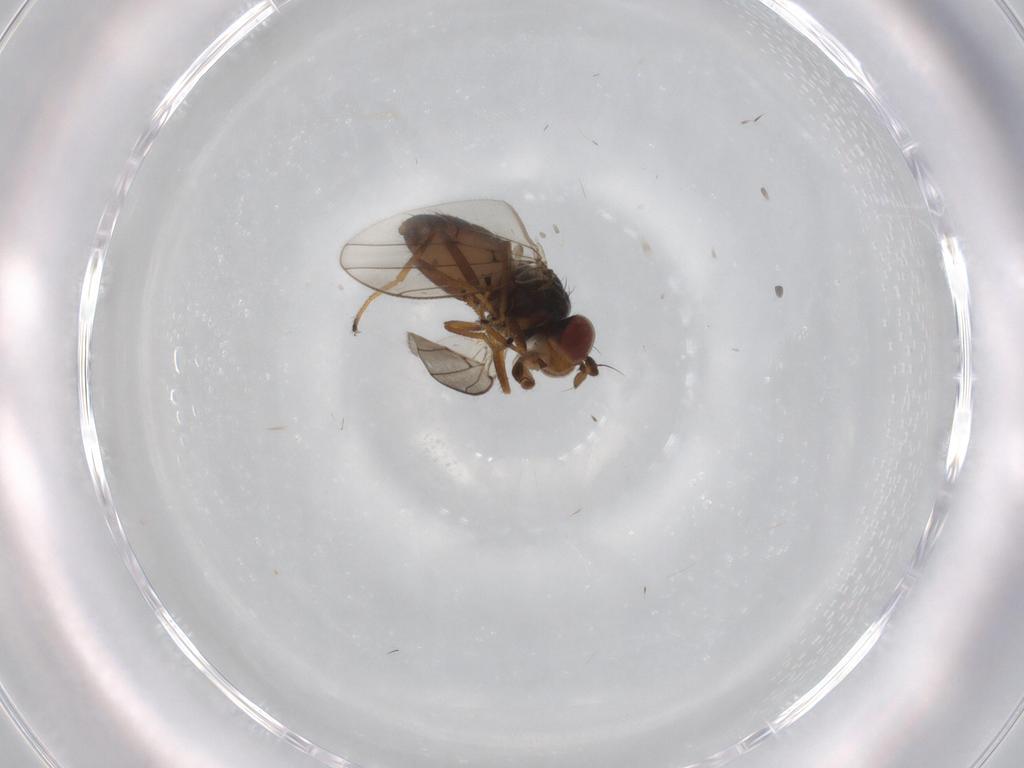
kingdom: Animalia
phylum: Arthropoda
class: Insecta
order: Diptera
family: Ephydridae
